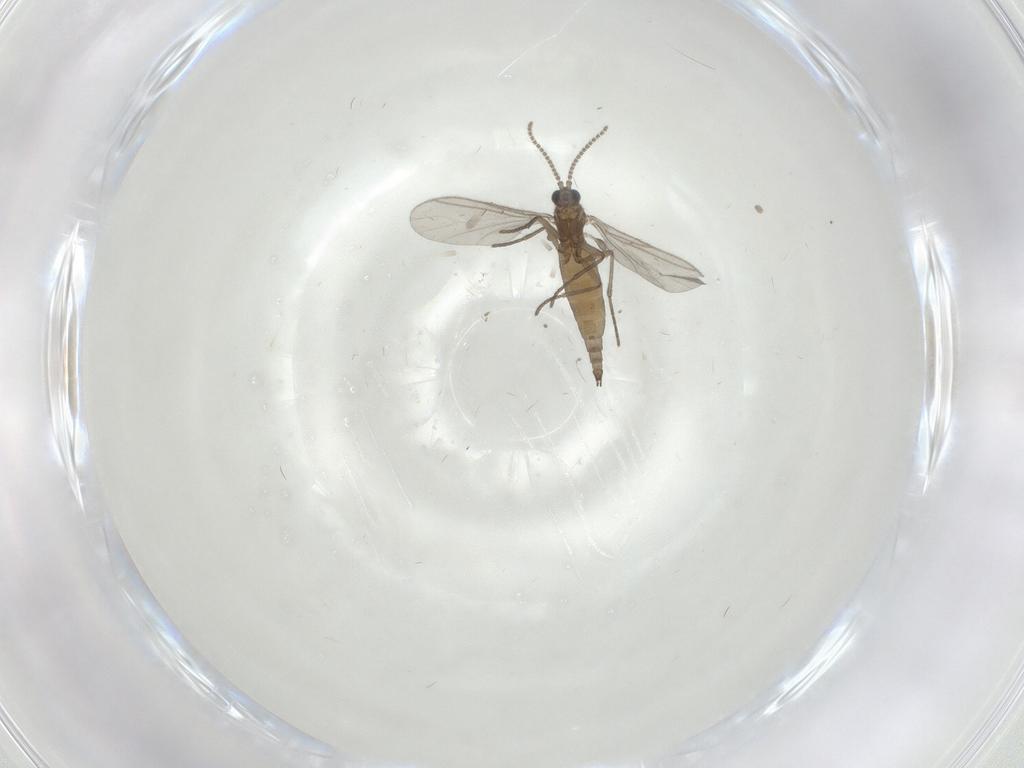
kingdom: Animalia
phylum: Arthropoda
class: Insecta
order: Diptera
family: Sciaridae
